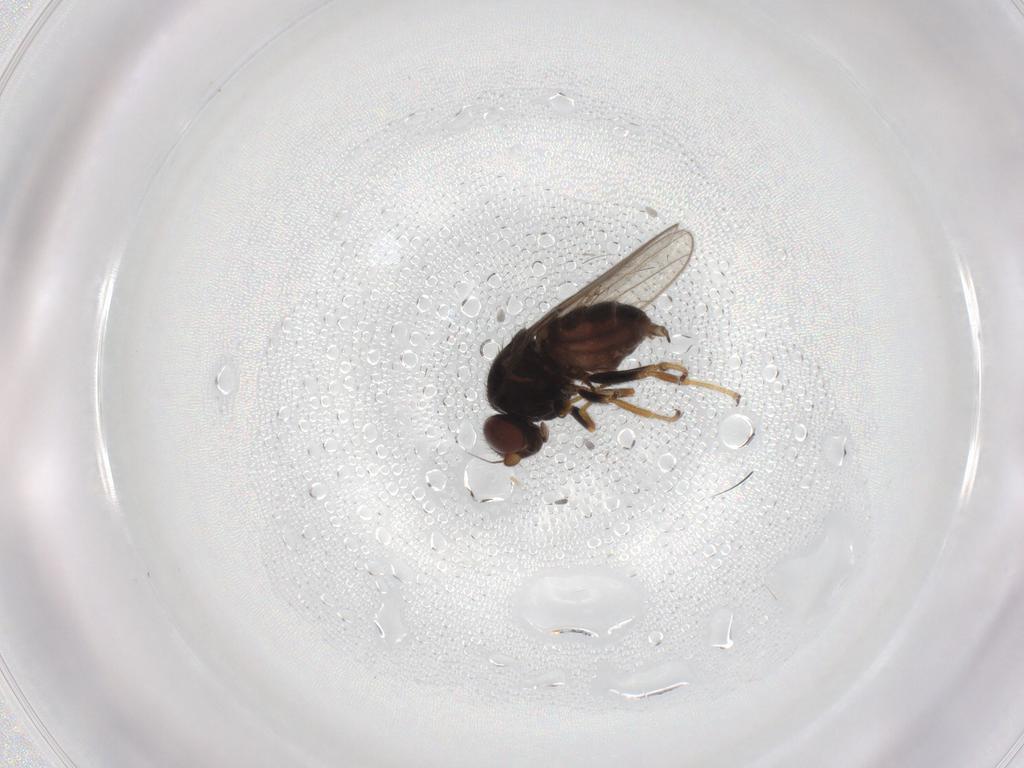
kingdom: Animalia
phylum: Arthropoda
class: Insecta
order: Diptera
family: Chloropidae
